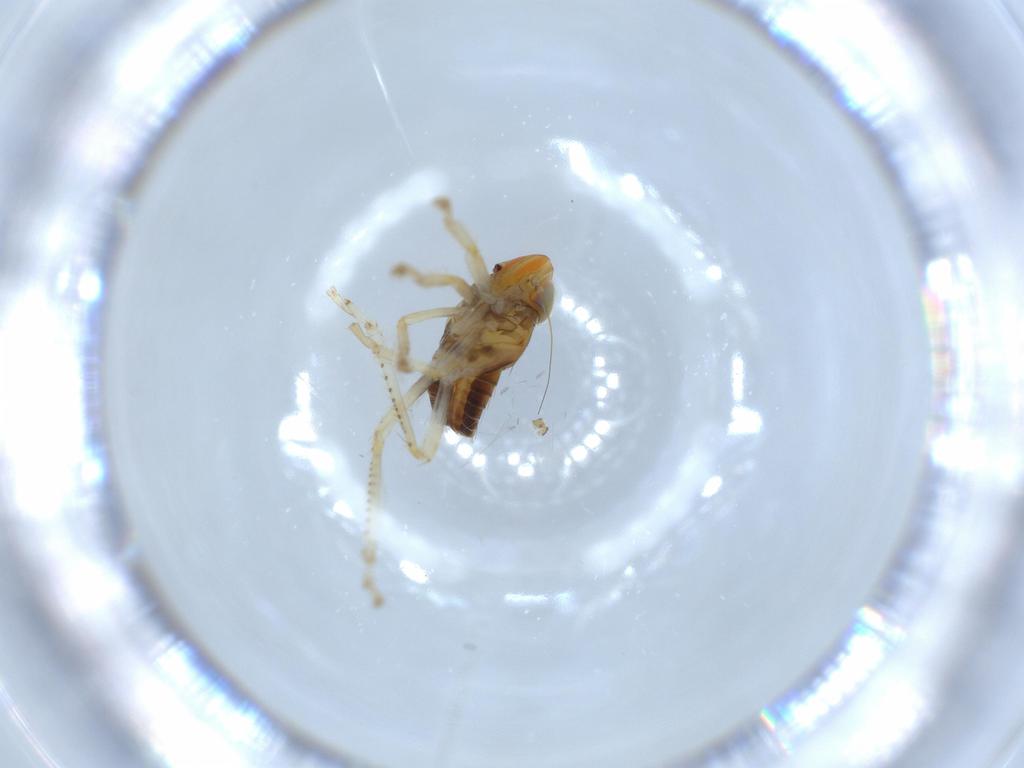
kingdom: Animalia
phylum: Arthropoda
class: Insecta
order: Hemiptera
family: Cicadellidae
